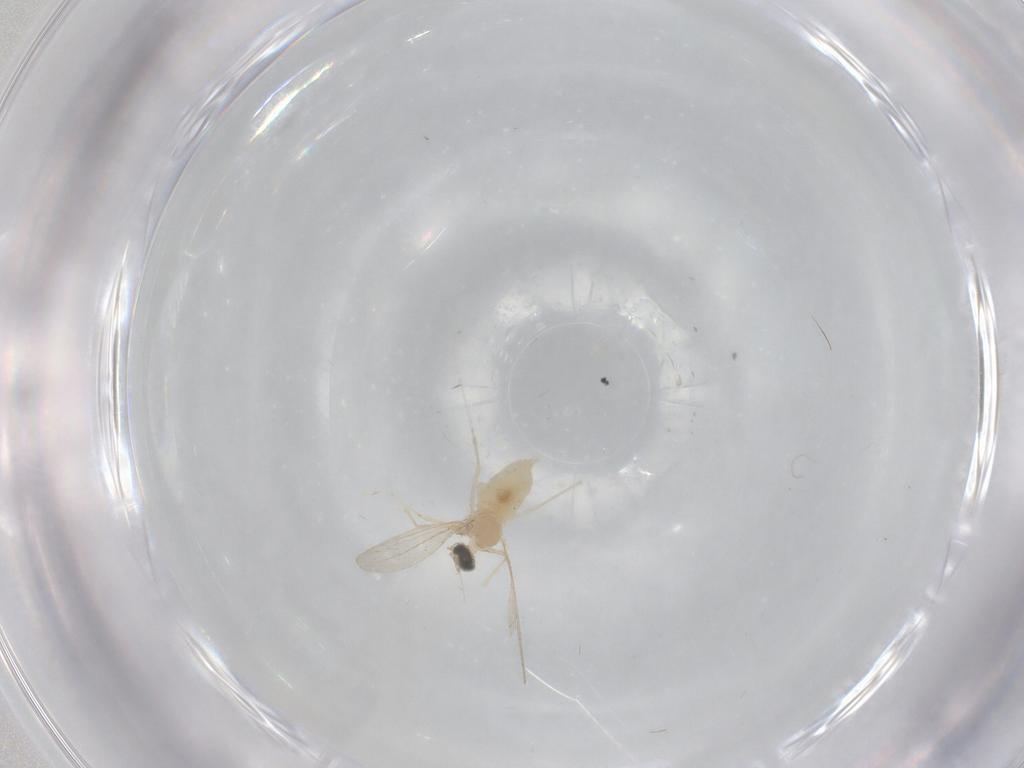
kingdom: Animalia
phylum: Arthropoda
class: Insecta
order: Diptera
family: Cecidomyiidae
